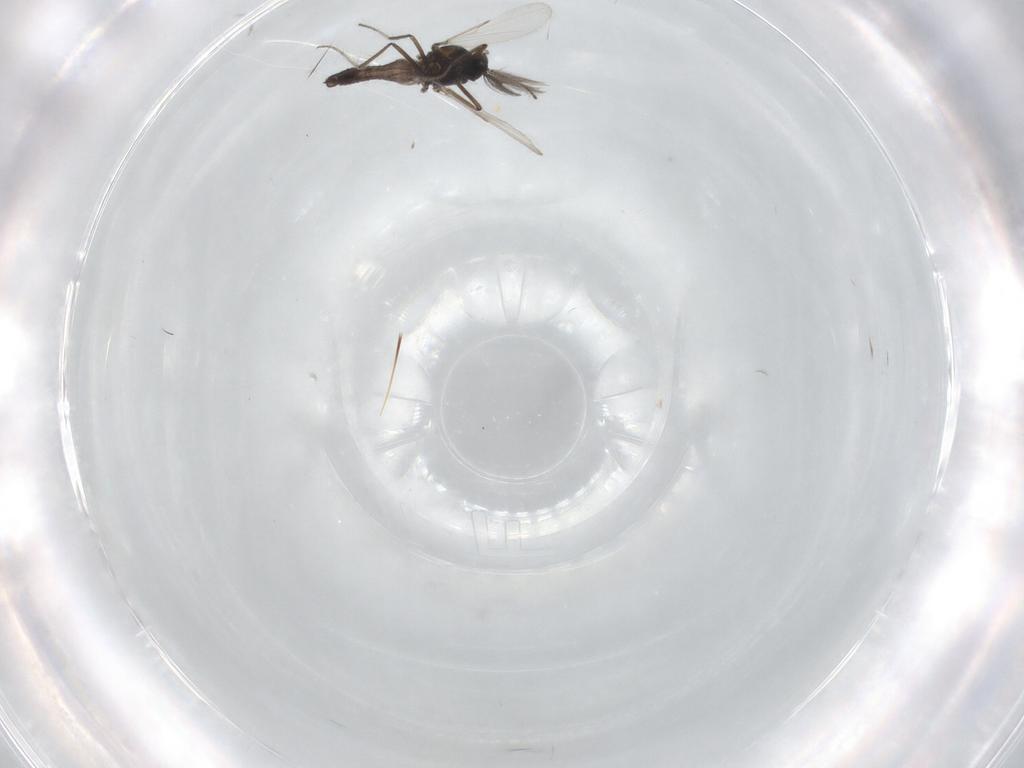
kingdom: Animalia
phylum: Arthropoda
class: Insecta
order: Diptera
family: Ceratopogonidae
